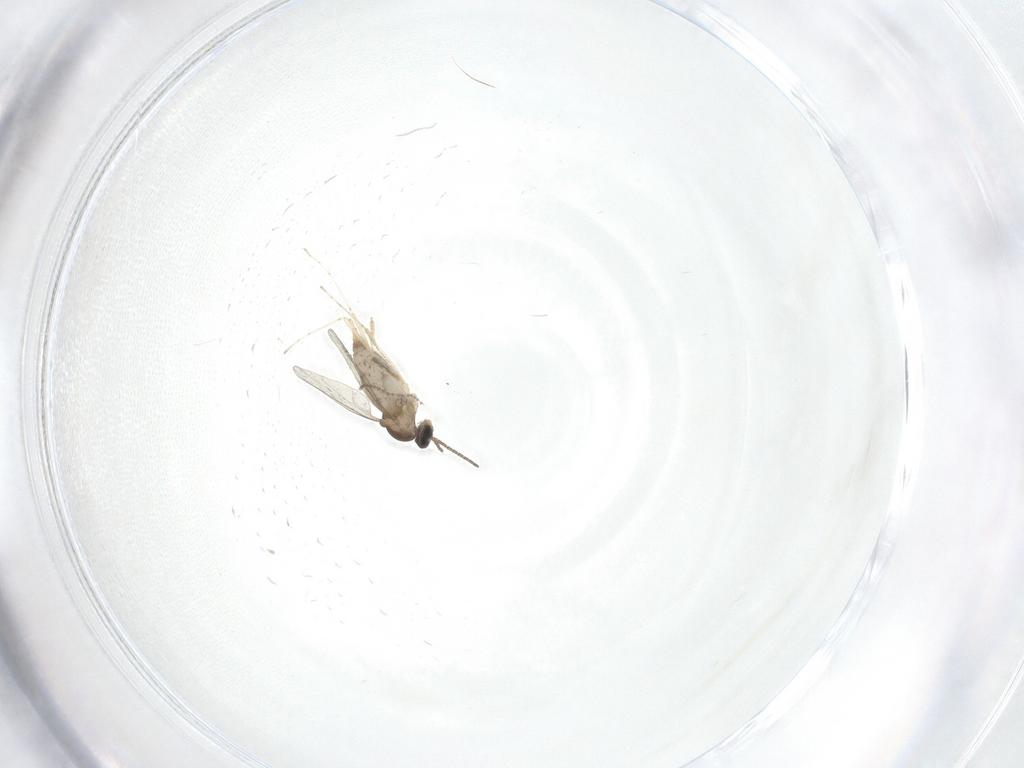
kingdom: Animalia
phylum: Arthropoda
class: Insecta
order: Diptera
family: Cecidomyiidae
